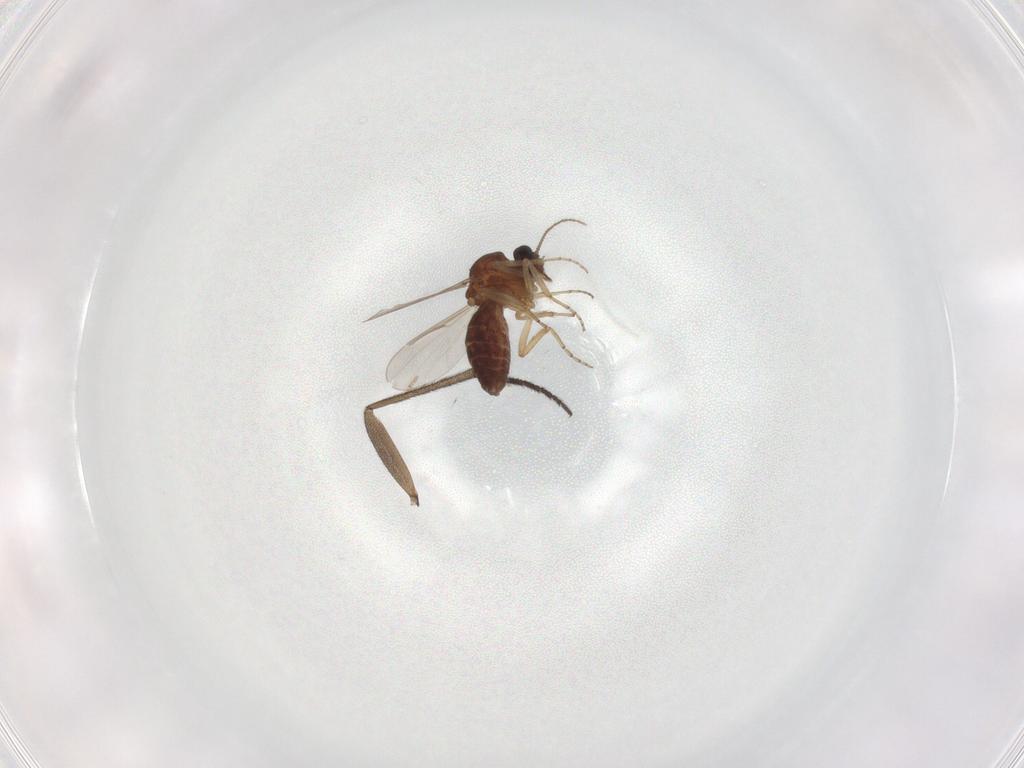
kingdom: Animalia
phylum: Arthropoda
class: Insecta
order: Diptera
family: Ceratopogonidae
